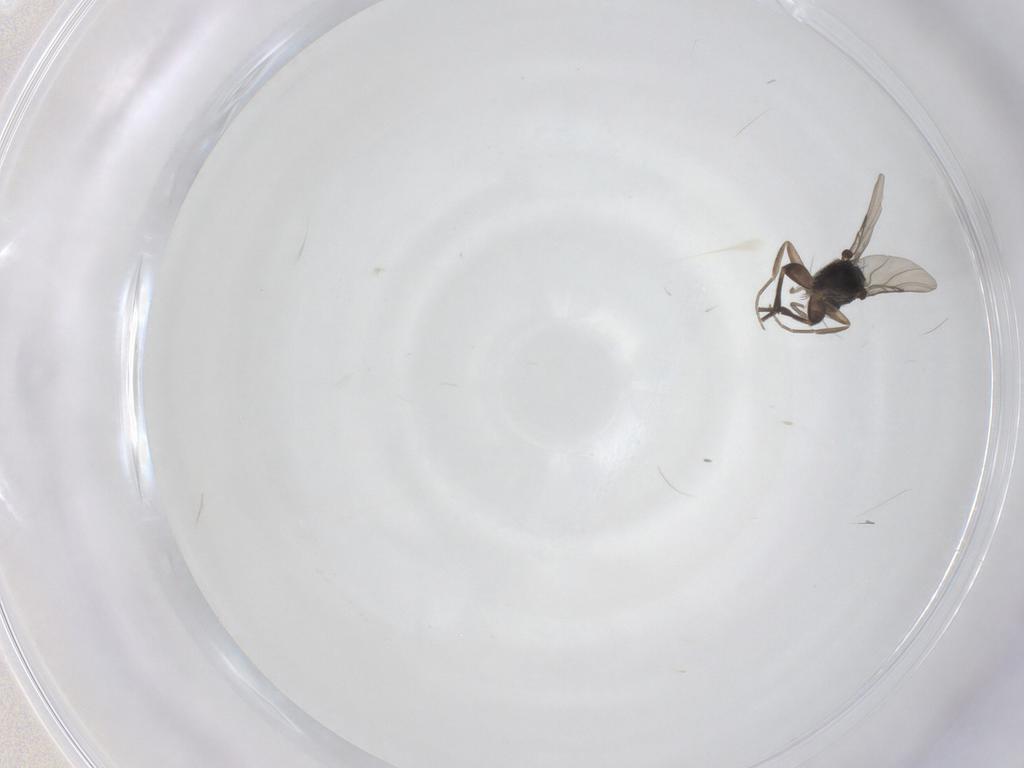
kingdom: Animalia
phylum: Arthropoda
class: Insecta
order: Diptera
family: Phoridae
